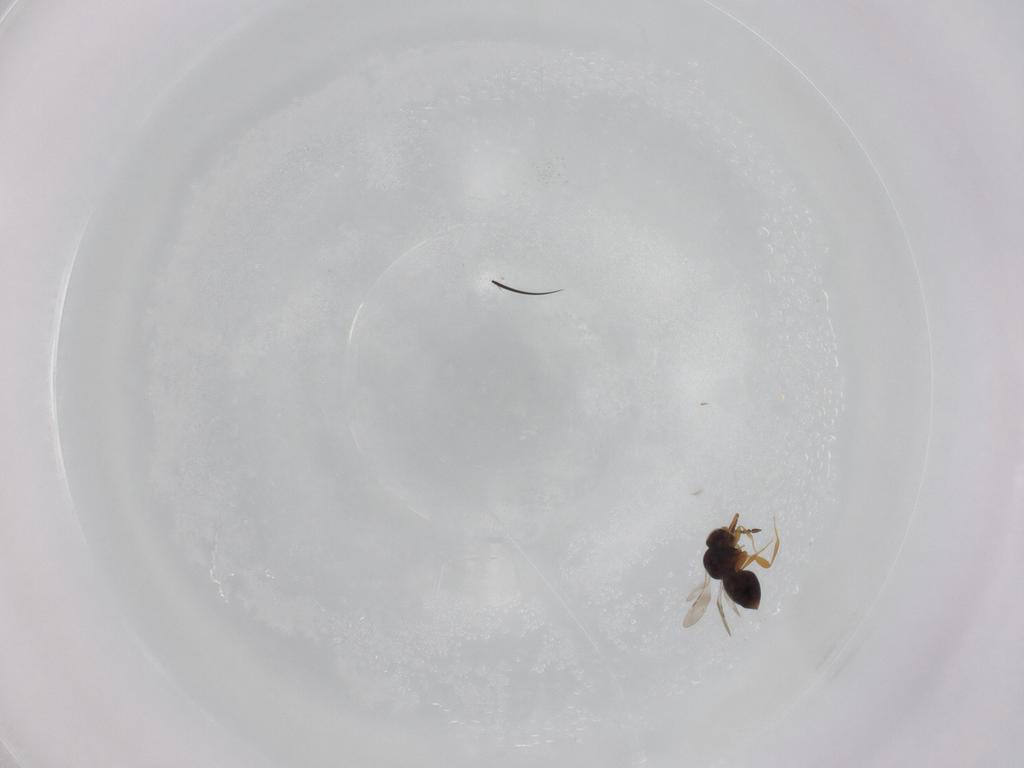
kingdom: Animalia
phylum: Arthropoda
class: Insecta
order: Hymenoptera
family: Ceraphronidae
